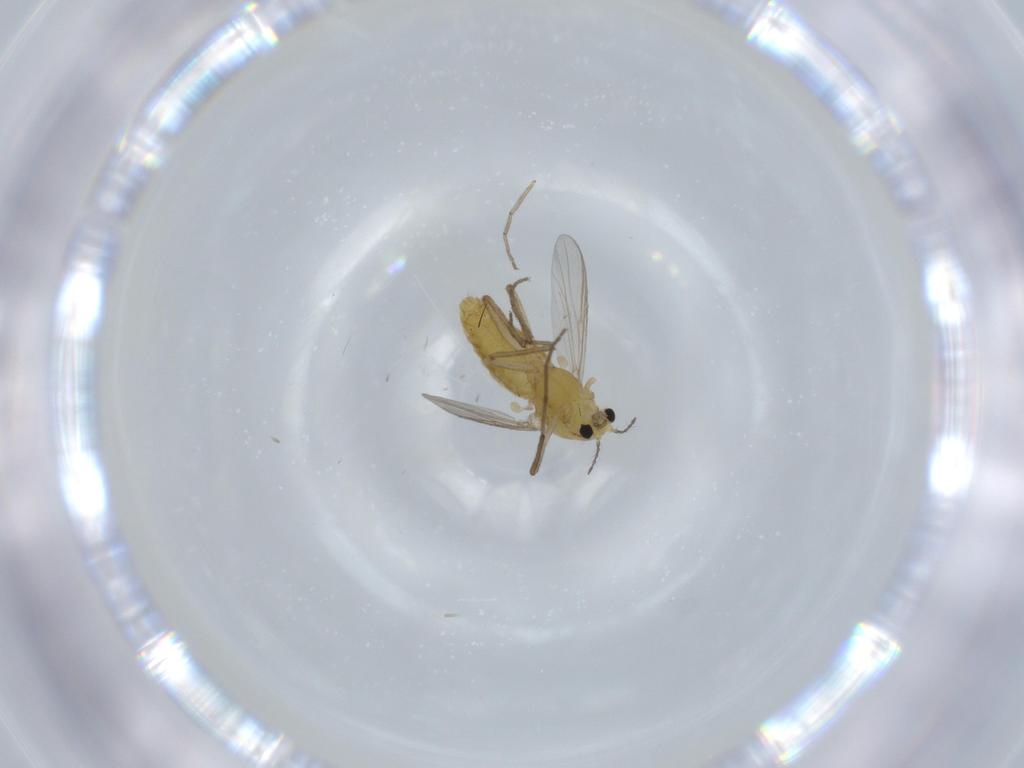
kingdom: Animalia
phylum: Arthropoda
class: Insecta
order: Diptera
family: Chironomidae
